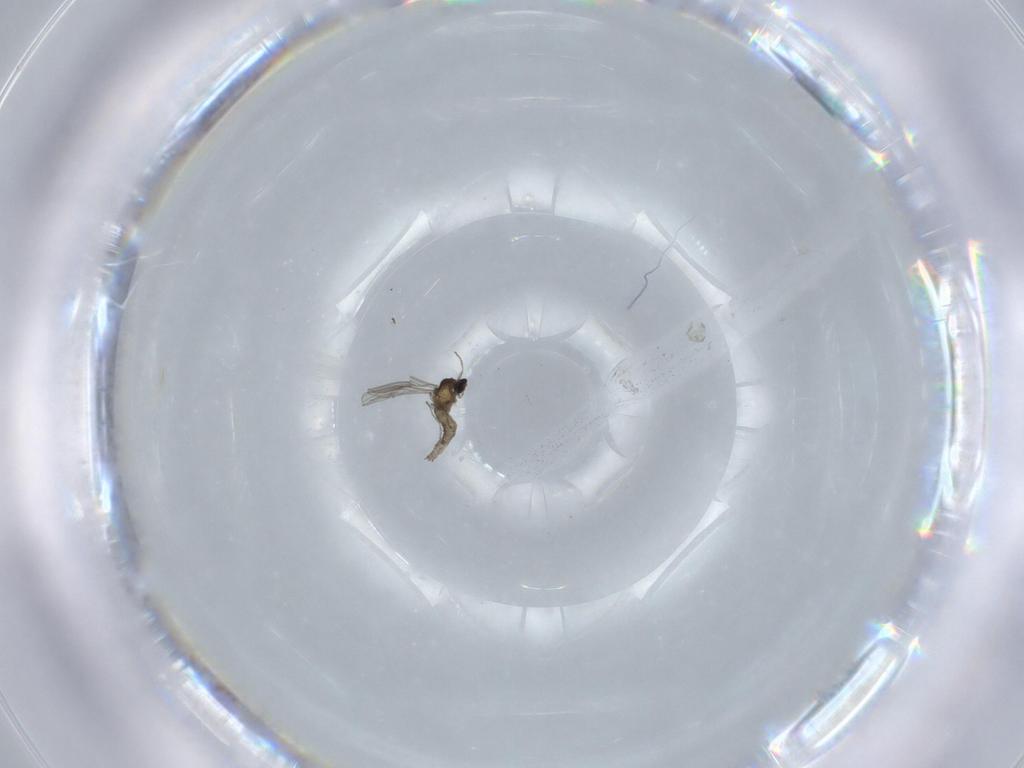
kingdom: Animalia
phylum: Arthropoda
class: Insecta
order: Diptera
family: Cecidomyiidae
